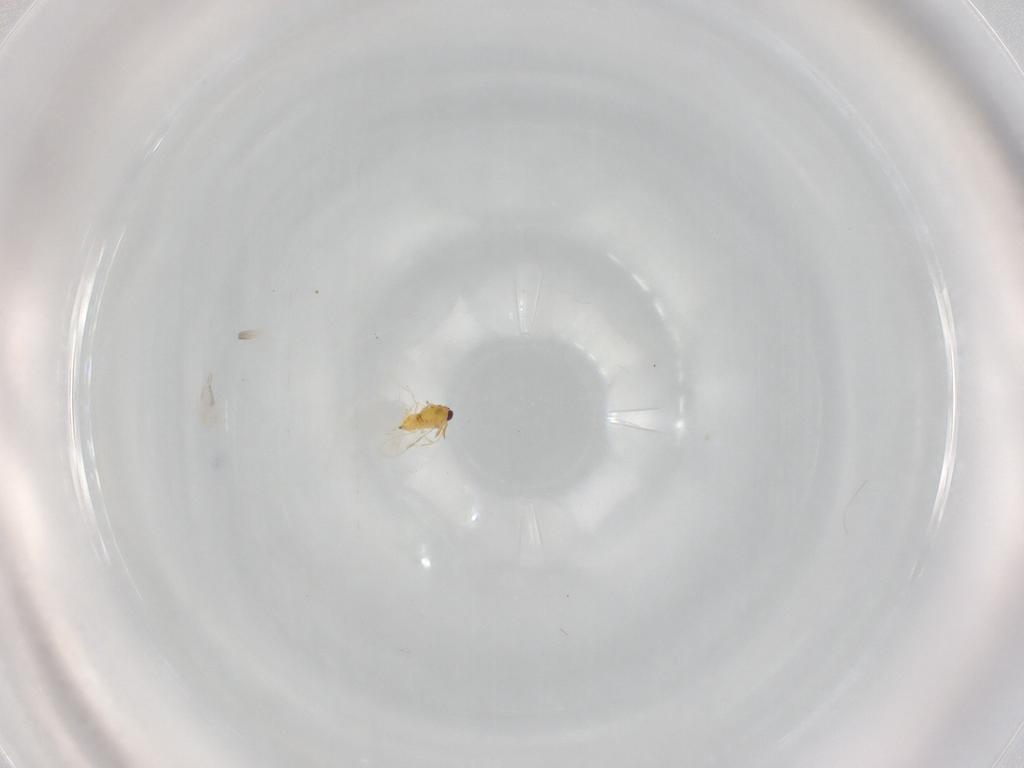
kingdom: Animalia
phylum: Arthropoda
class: Insecta
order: Hymenoptera
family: Aphelinidae
